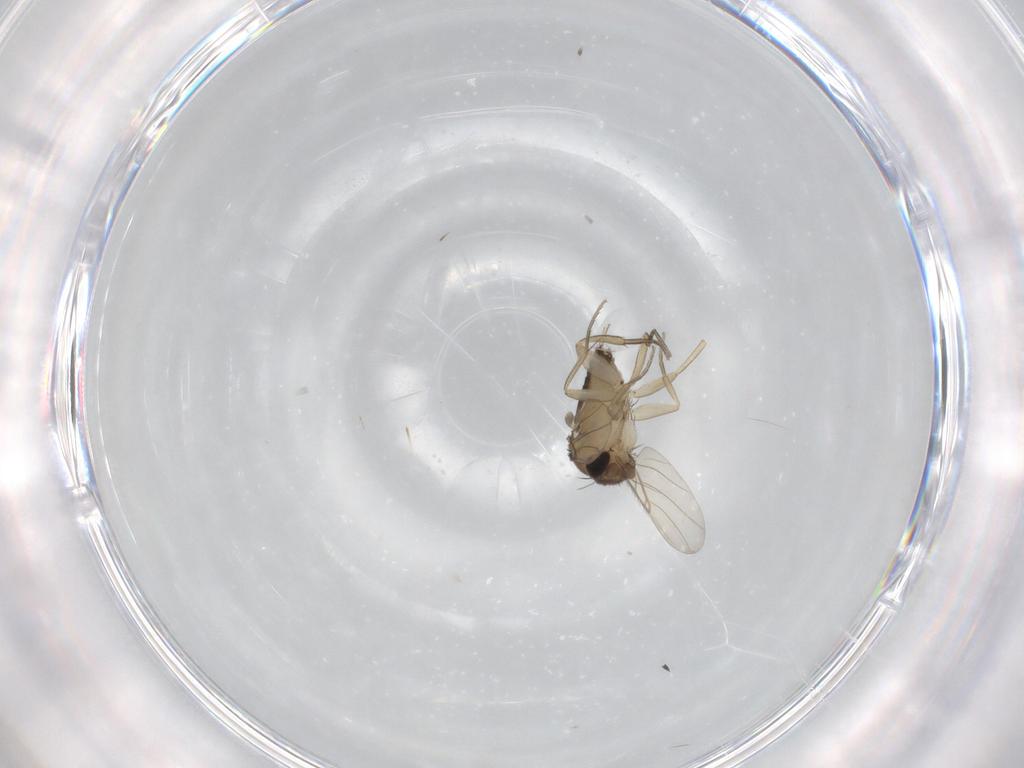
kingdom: Animalia
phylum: Arthropoda
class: Insecta
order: Diptera
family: Phoridae
